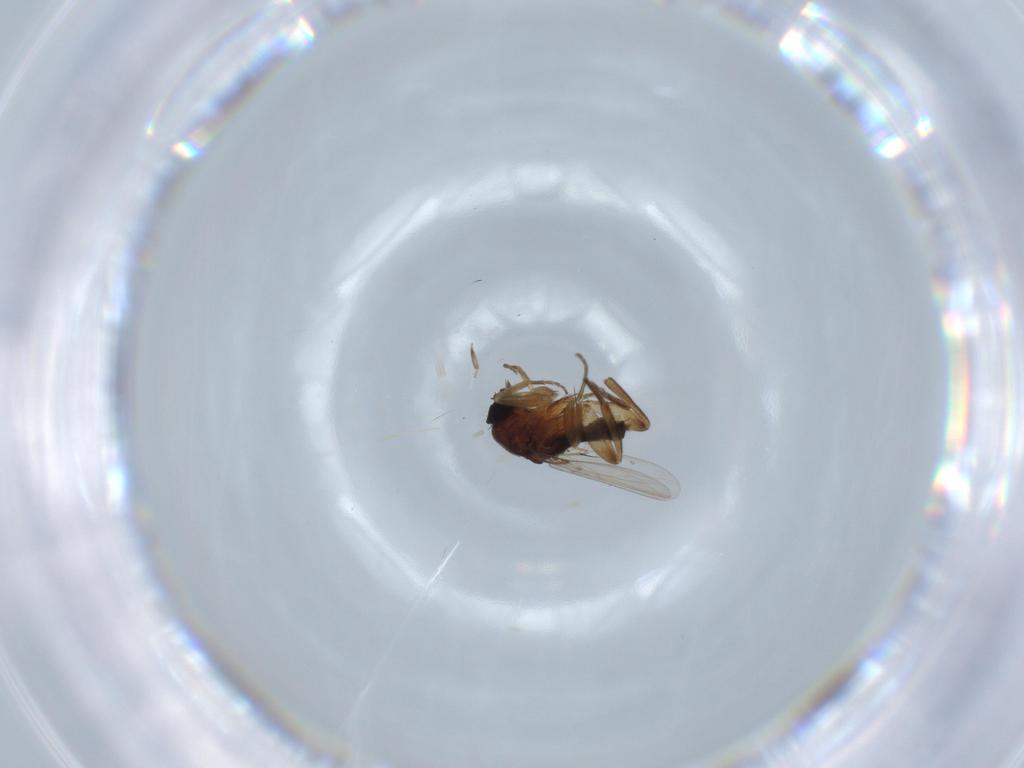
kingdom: Animalia
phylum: Arthropoda
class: Insecta
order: Diptera
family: Phoridae
